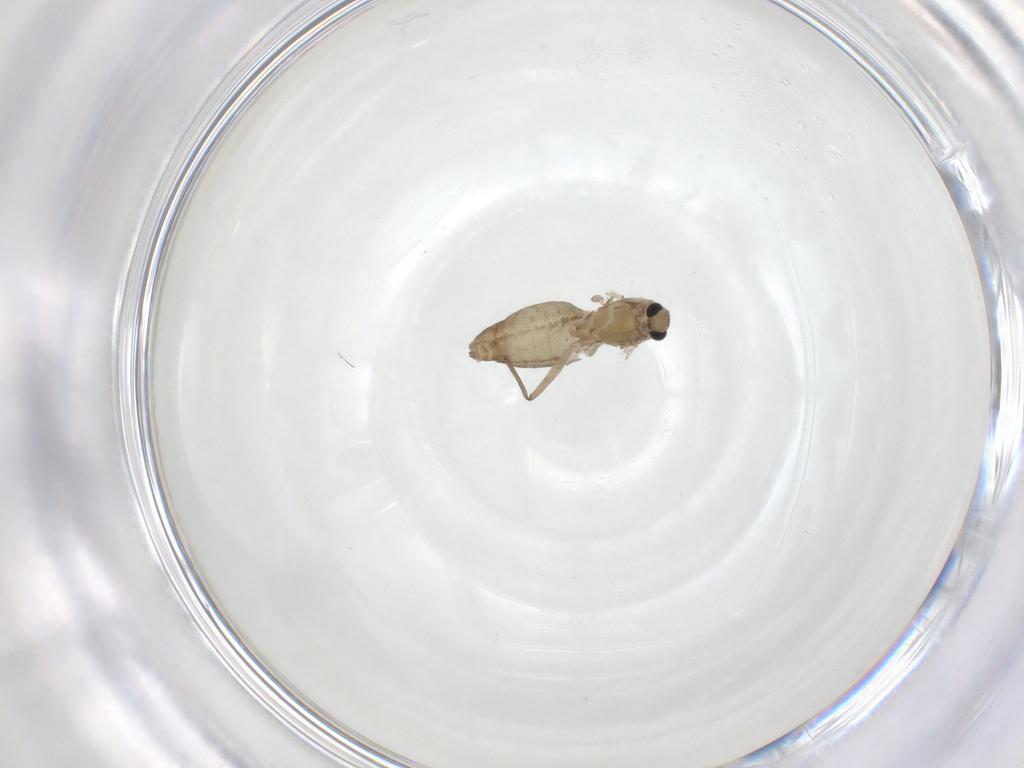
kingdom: Animalia
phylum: Arthropoda
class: Insecta
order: Diptera
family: Chironomidae
